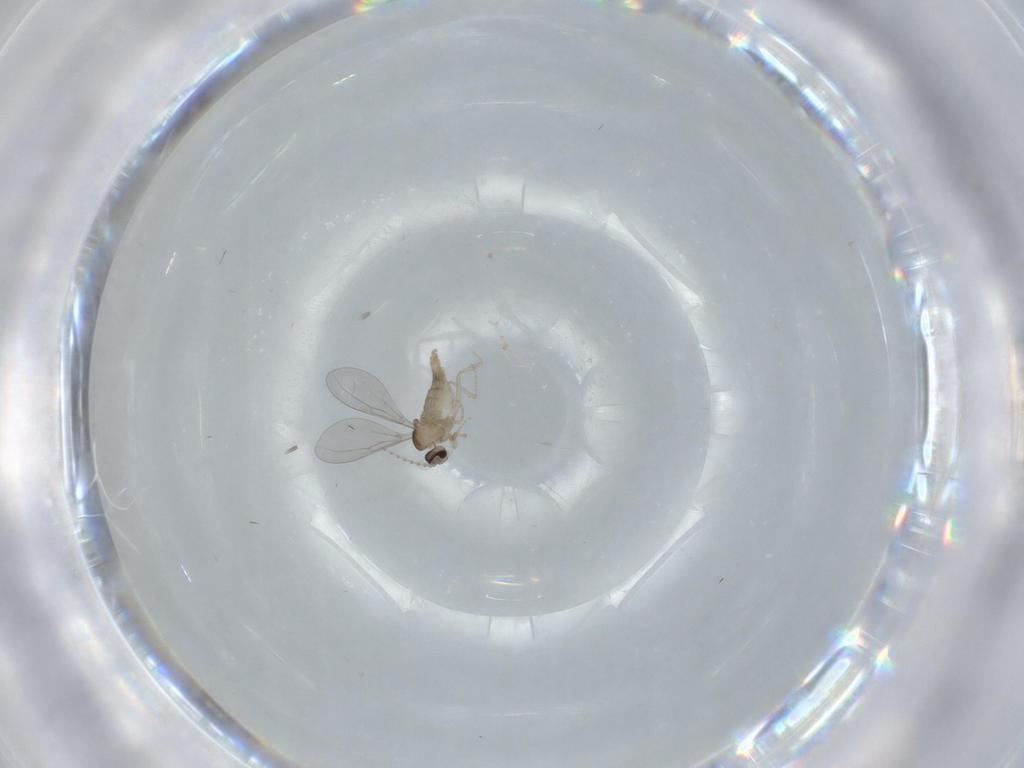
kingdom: Animalia
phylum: Arthropoda
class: Insecta
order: Diptera
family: Cecidomyiidae
